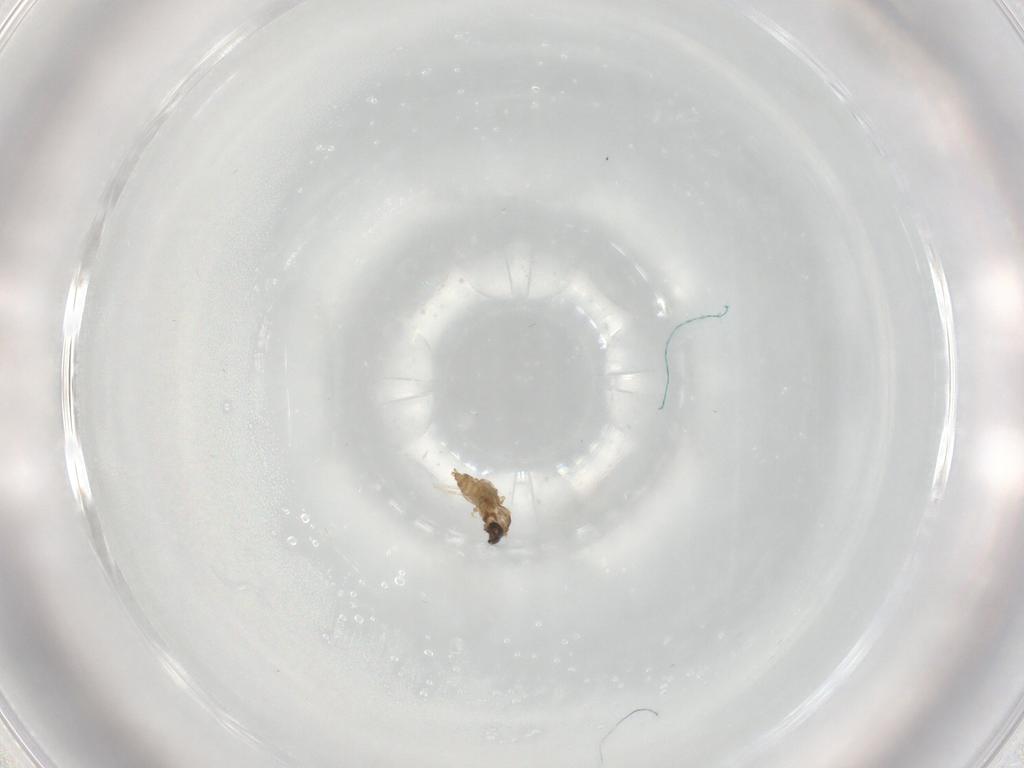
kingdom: Animalia
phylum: Arthropoda
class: Insecta
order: Diptera
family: Cecidomyiidae
